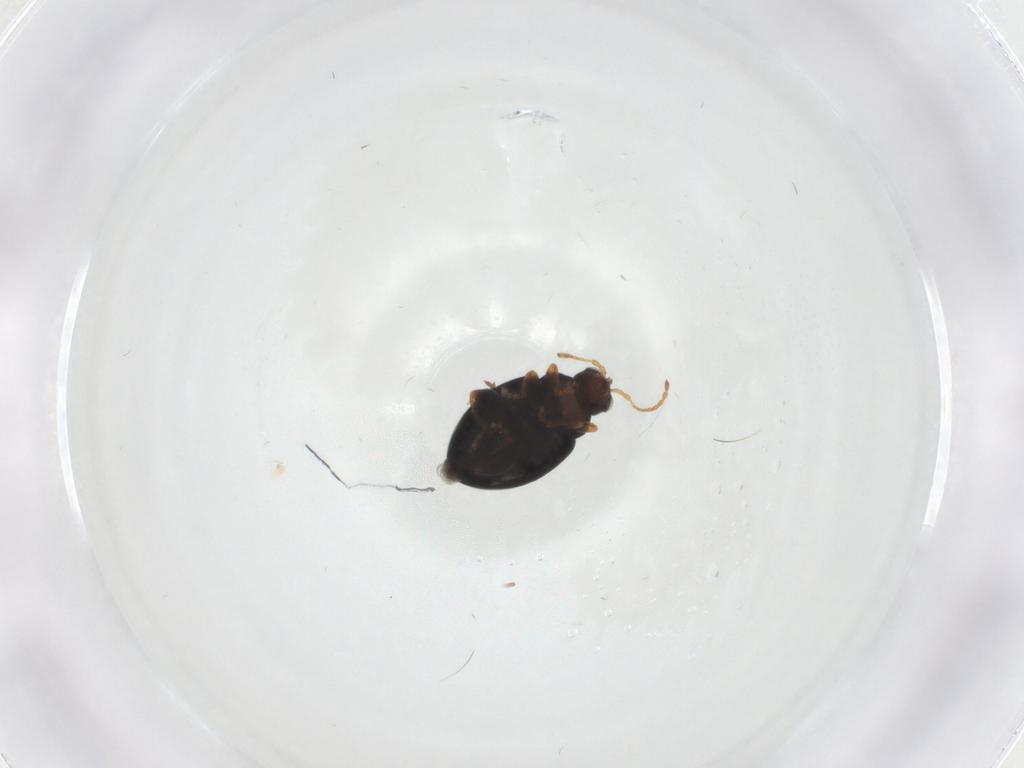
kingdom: Animalia
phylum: Arthropoda
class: Insecta
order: Coleoptera
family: Chrysomelidae
